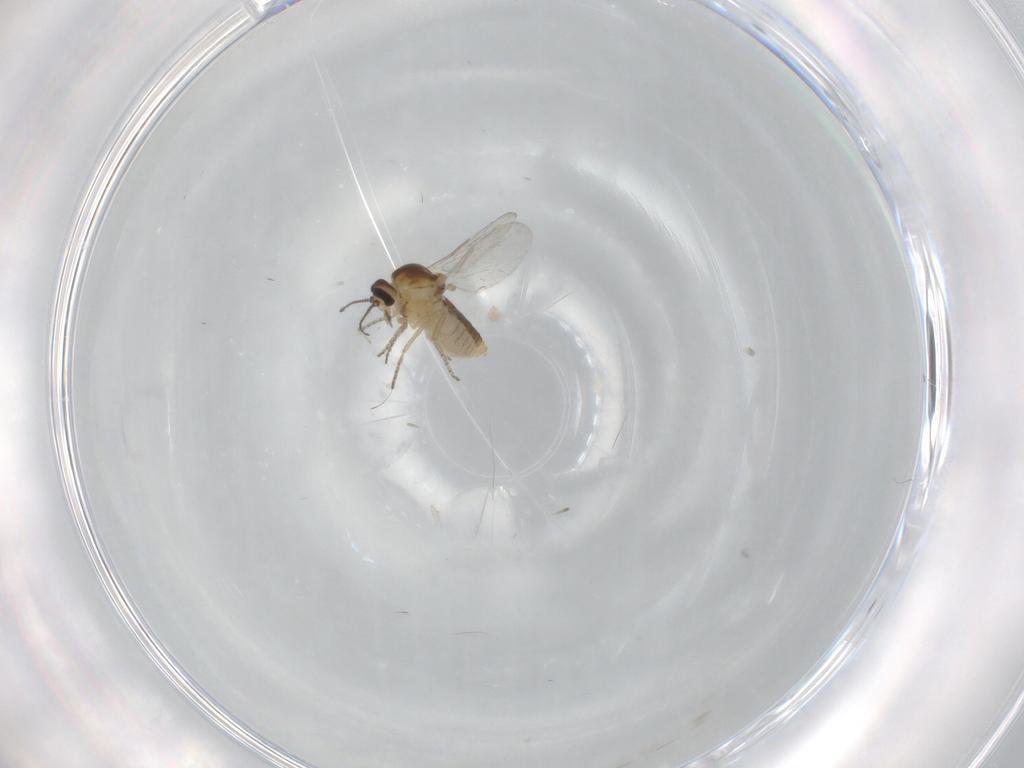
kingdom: Animalia
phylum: Arthropoda
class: Insecta
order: Diptera
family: Ceratopogonidae
